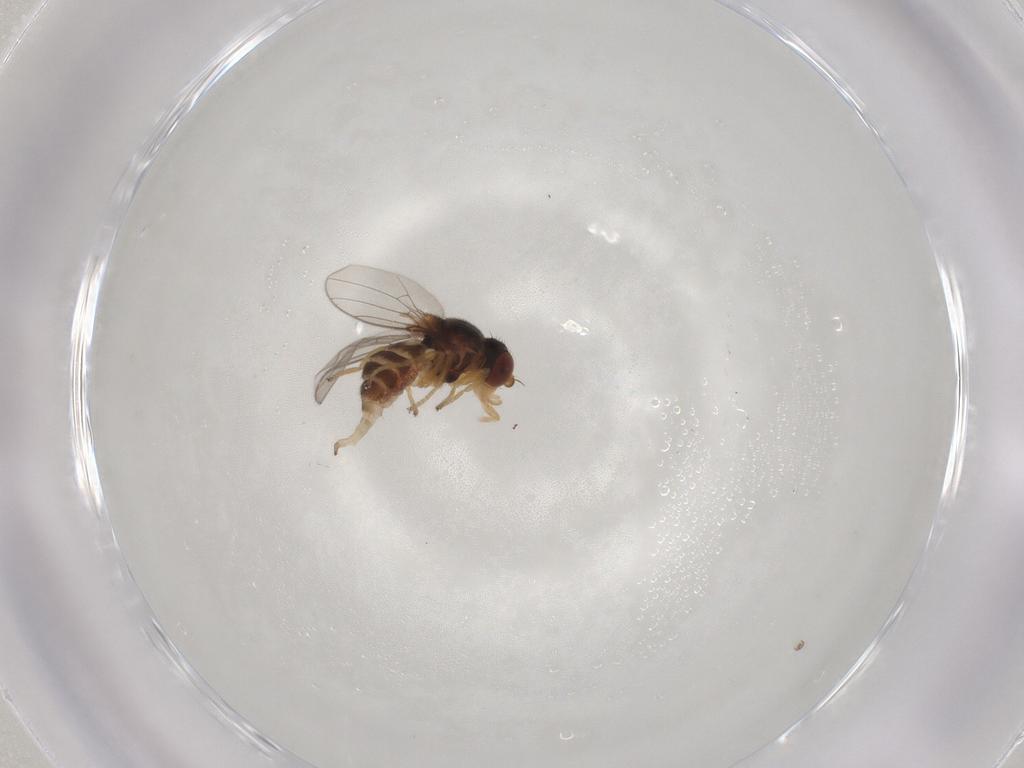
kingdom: Animalia
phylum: Arthropoda
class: Insecta
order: Diptera
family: Chloropidae
